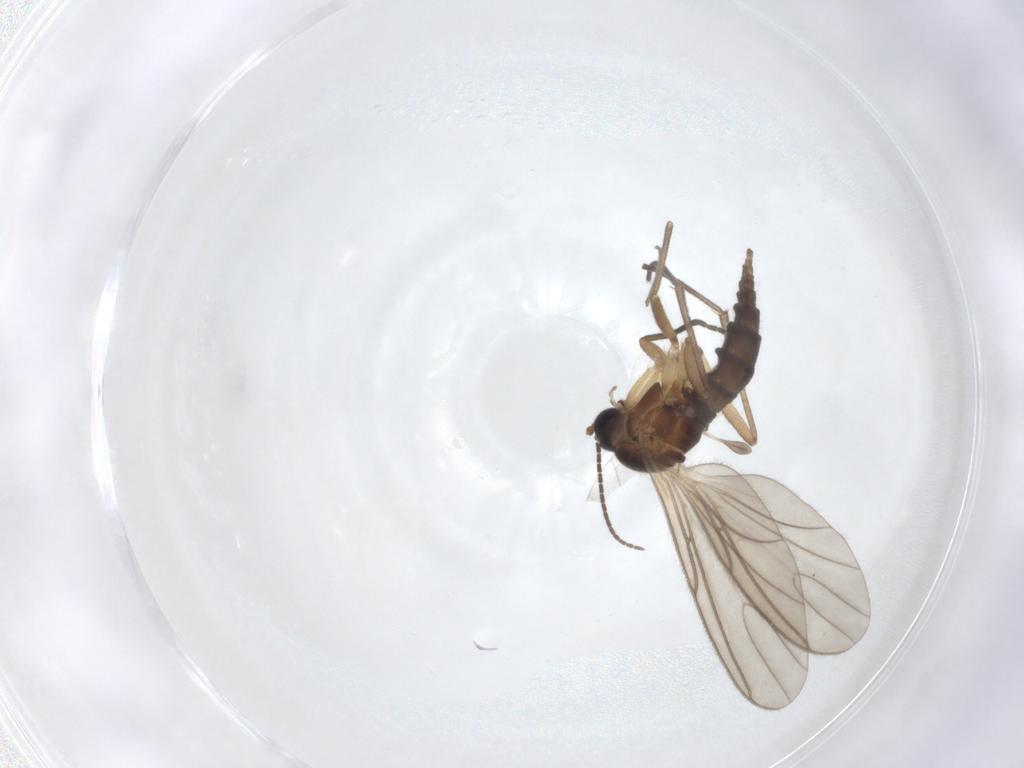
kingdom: Animalia
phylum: Arthropoda
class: Insecta
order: Diptera
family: Sciaridae
